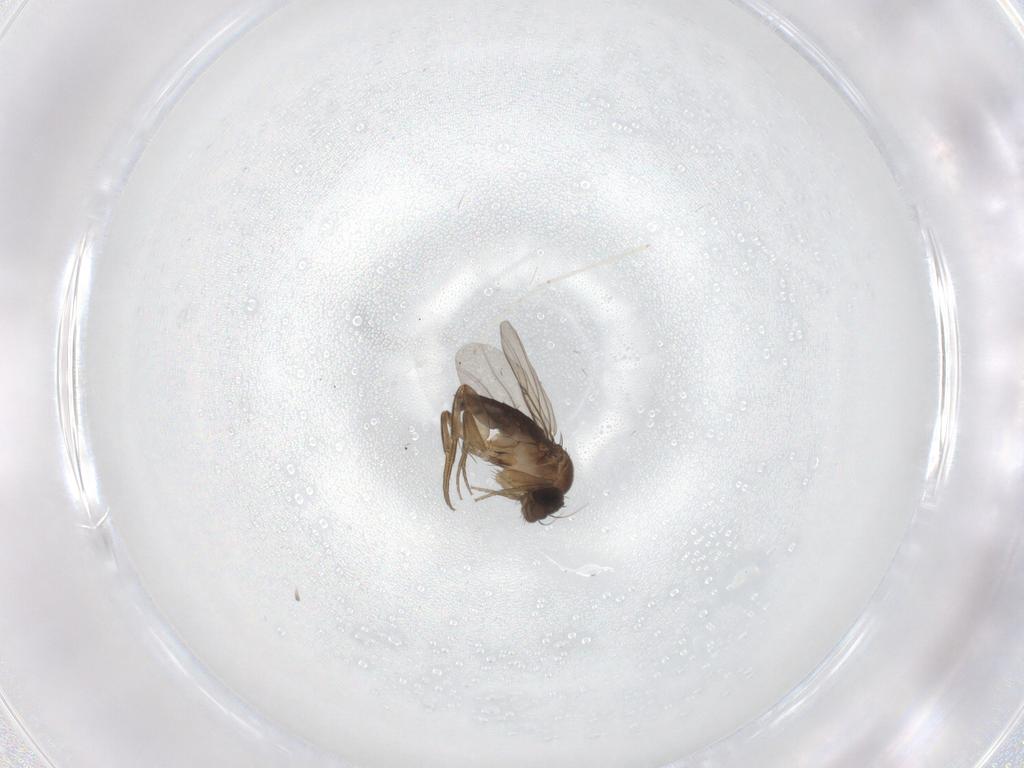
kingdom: Animalia
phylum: Arthropoda
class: Insecta
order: Diptera
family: Phoridae
